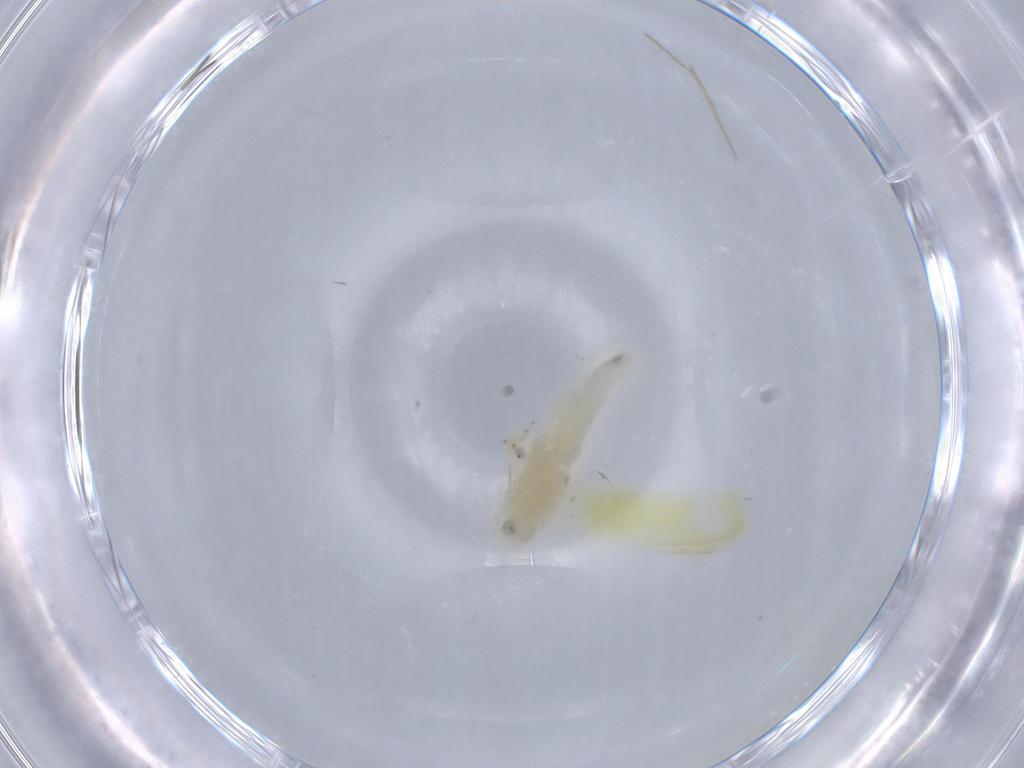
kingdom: Animalia
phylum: Arthropoda
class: Insecta
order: Hemiptera
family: Cicadellidae
